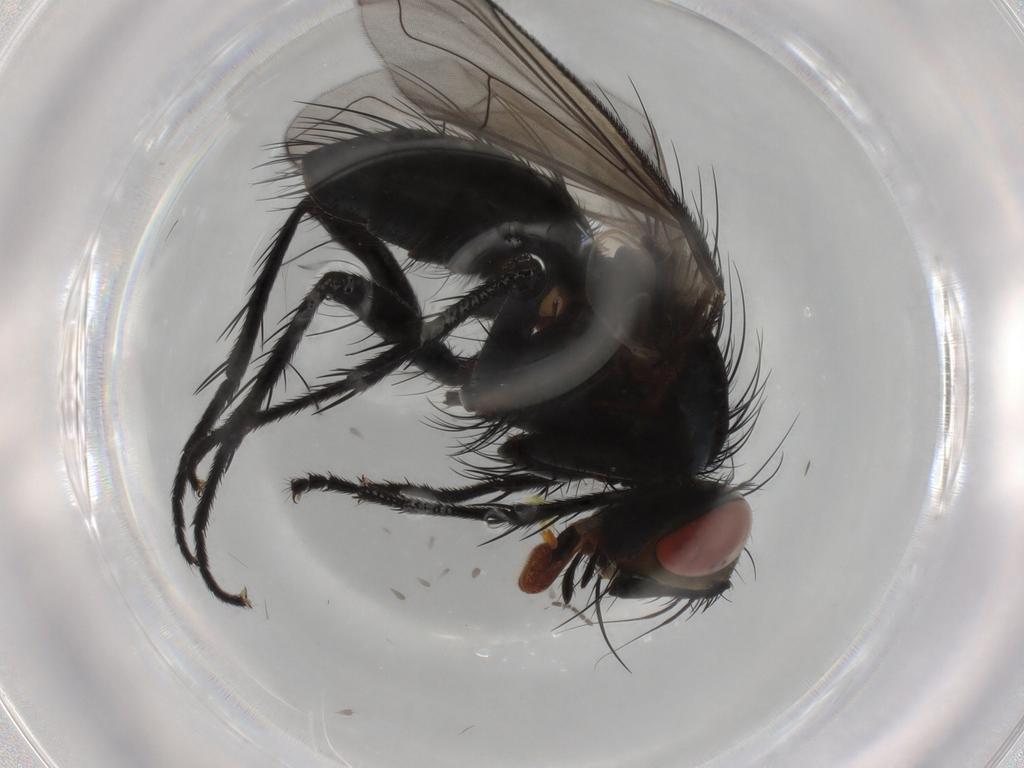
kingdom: Animalia
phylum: Arthropoda
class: Insecta
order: Diptera
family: Cecidomyiidae
